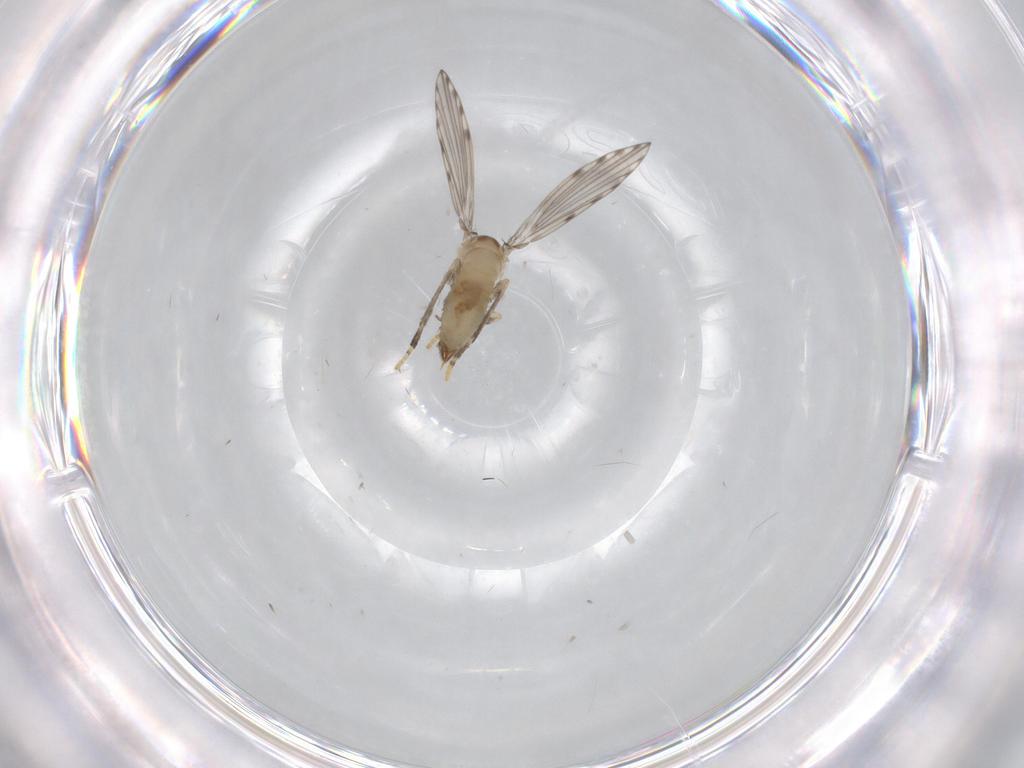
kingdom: Animalia
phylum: Arthropoda
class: Insecta
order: Diptera
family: Psychodidae
